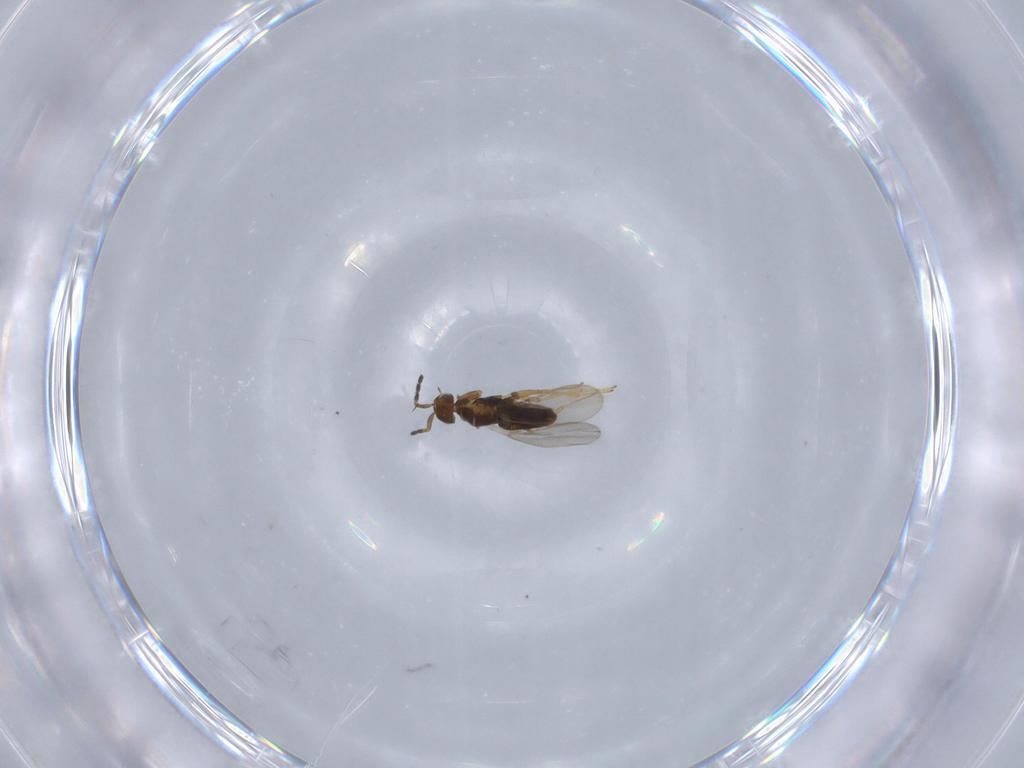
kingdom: Animalia
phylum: Arthropoda
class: Insecta
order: Hymenoptera
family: Encyrtidae
